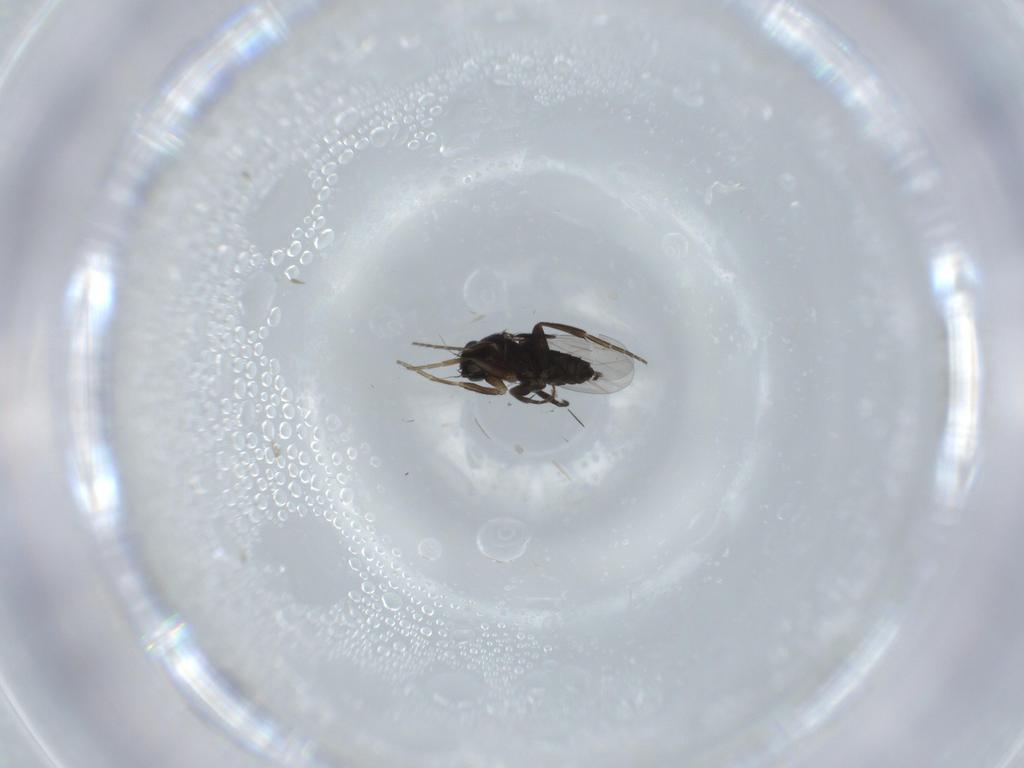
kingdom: Animalia
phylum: Arthropoda
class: Insecta
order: Diptera
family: Phoridae
